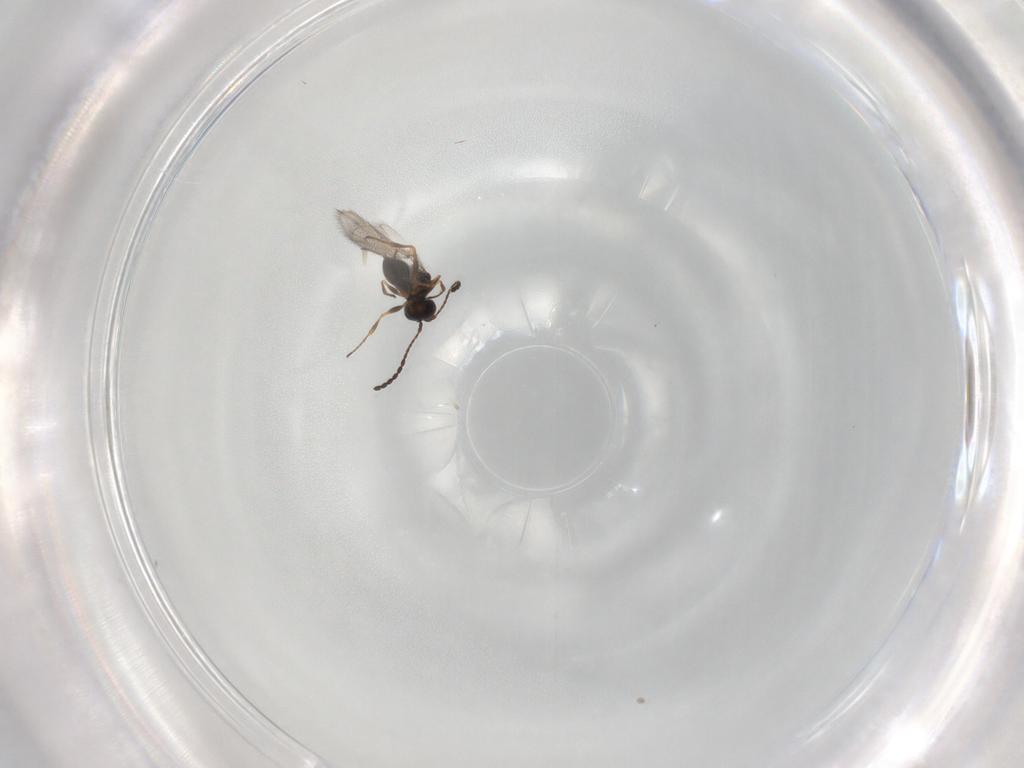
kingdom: Animalia
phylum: Arthropoda
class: Insecta
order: Hymenoptera
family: Figitidae
